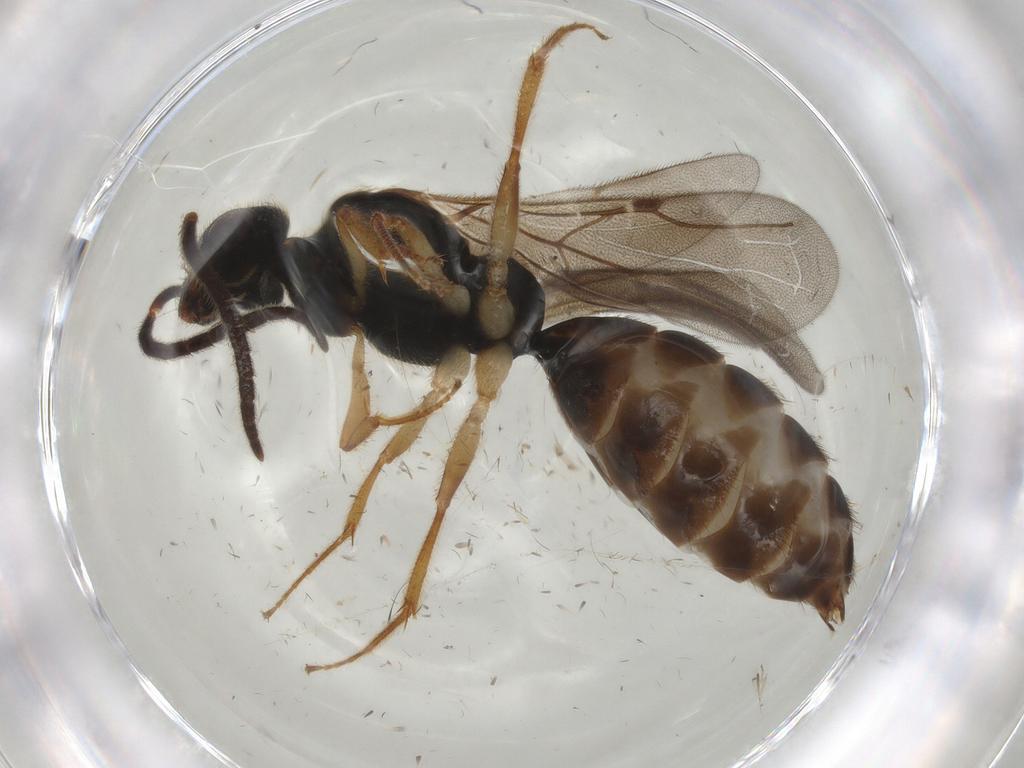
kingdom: Animalia
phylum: Arthropoda
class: Insecta
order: Hymenoptera
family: Bethylidae
